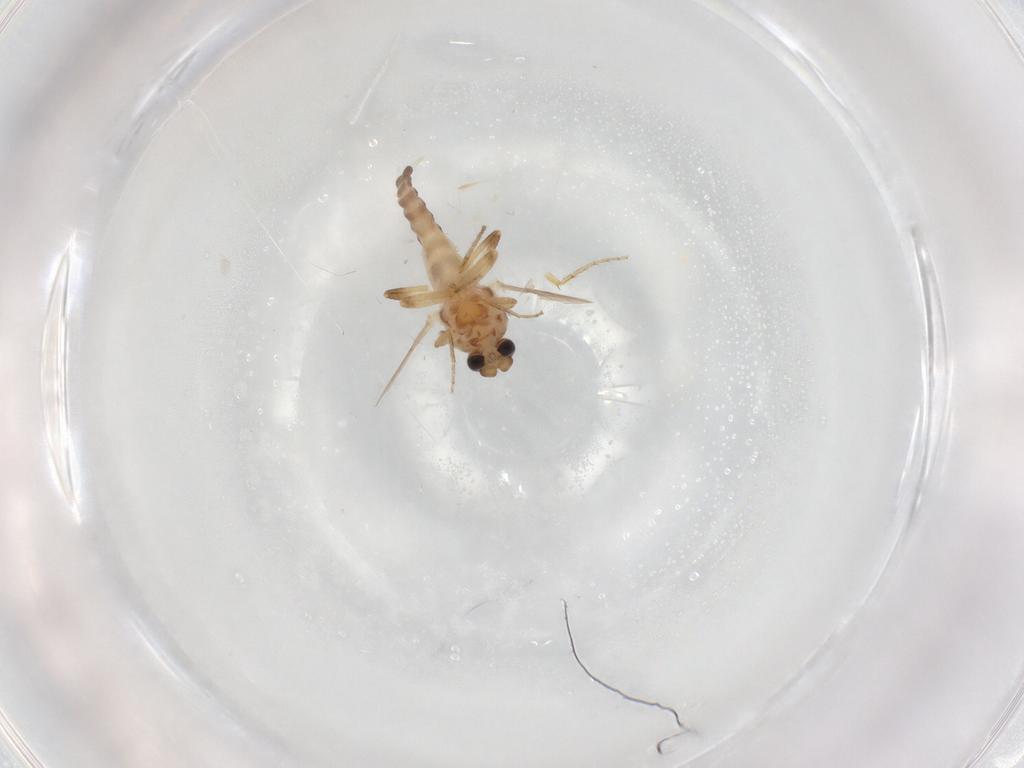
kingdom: Animalia
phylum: Arthropoda
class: Insecta
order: Diptera
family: Ceratopogonidae
